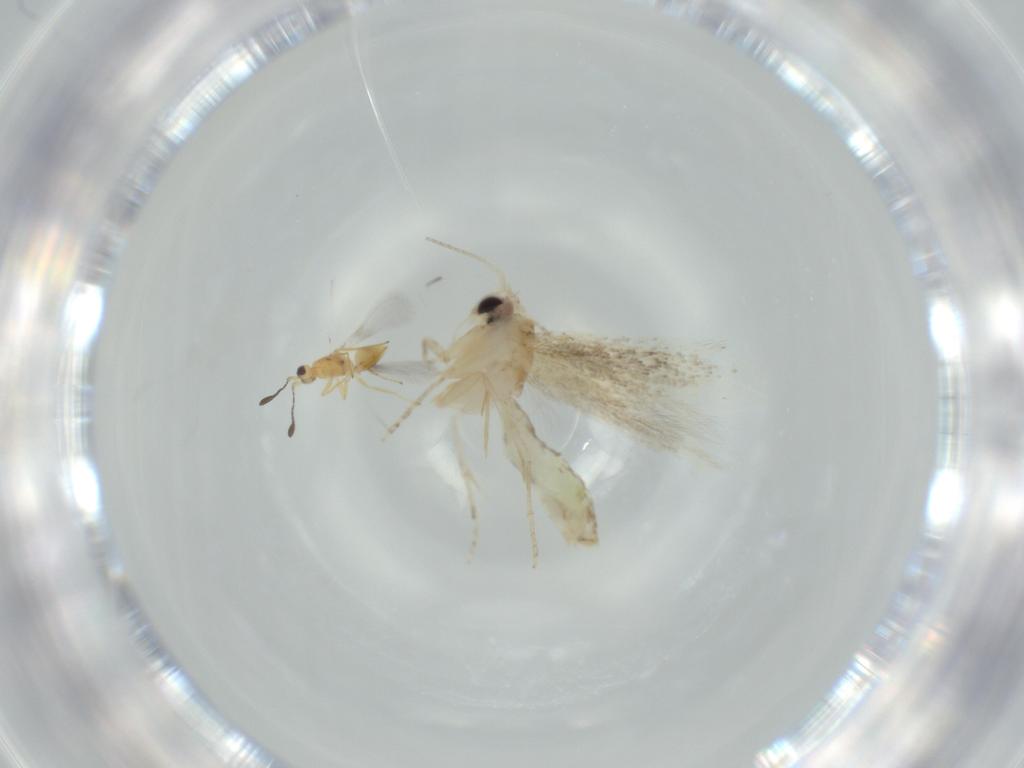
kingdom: Animalia
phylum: Arthropoda
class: Insecta
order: Lepidoptera
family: Bucculatricidae
